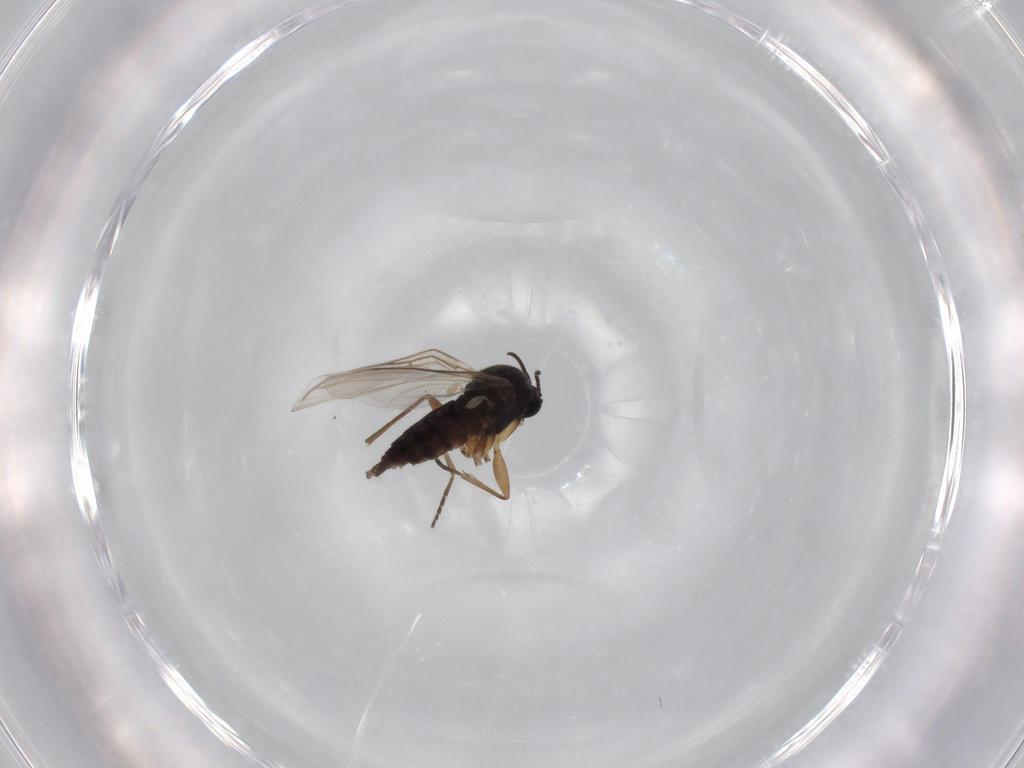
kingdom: Animalia
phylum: Arthropoda
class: Insecta
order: Diptera
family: Sciaridae
